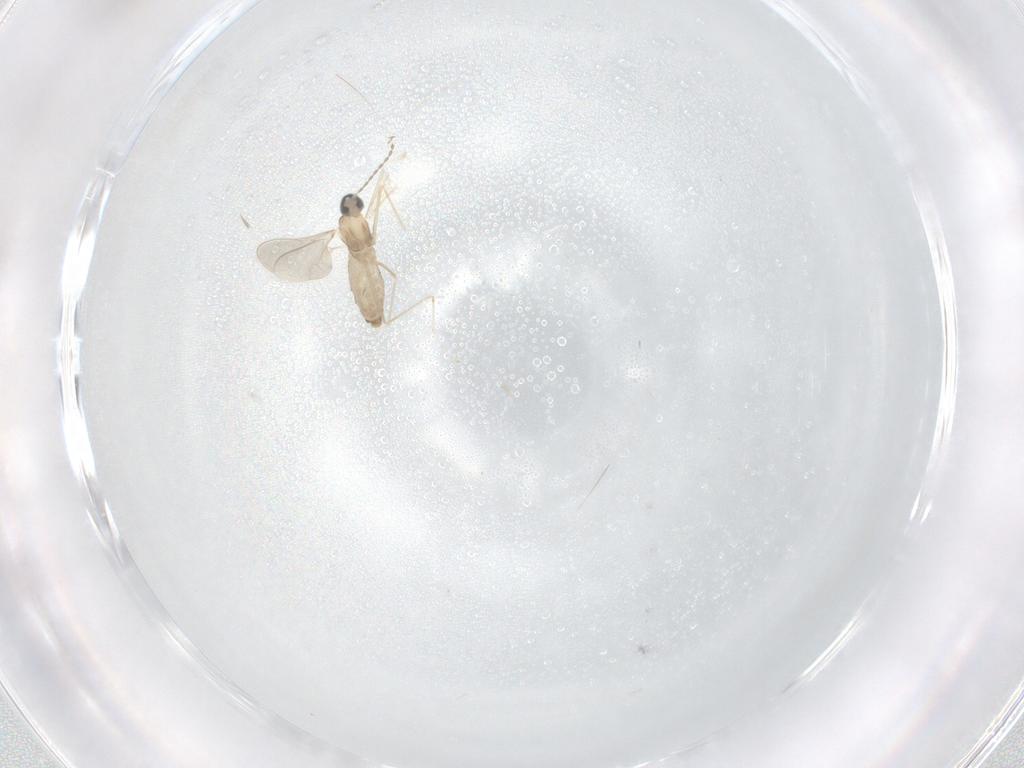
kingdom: Animalia
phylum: Arthropoda
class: Insecta
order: Diptera
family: Cecidomyiidae
